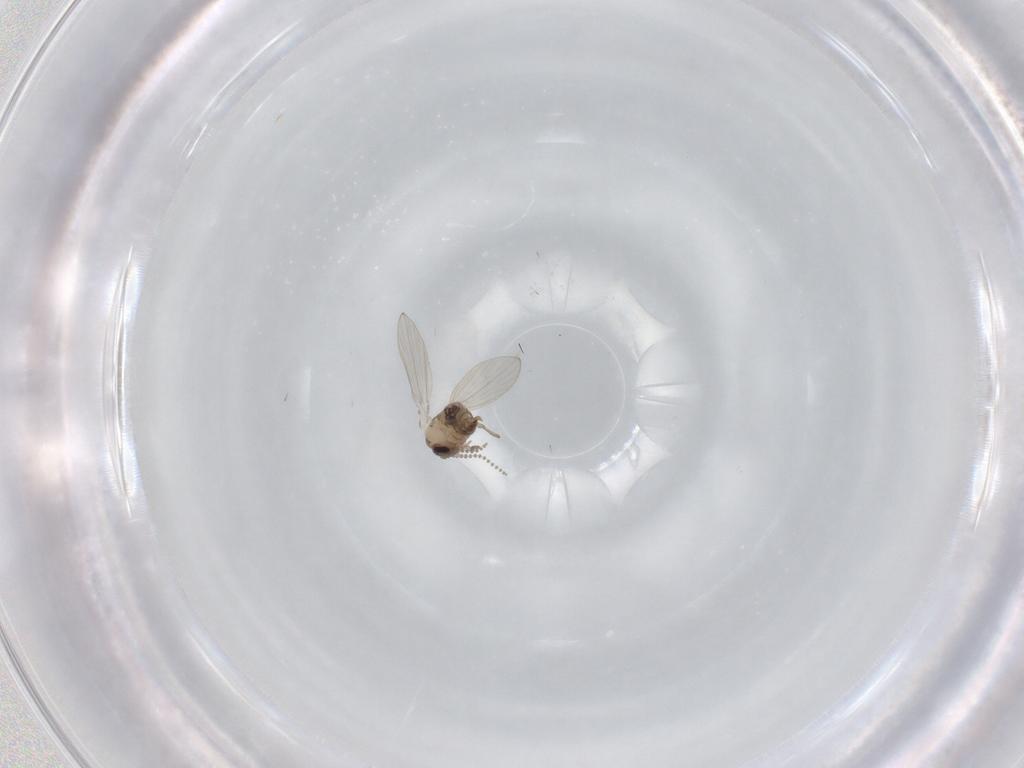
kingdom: Animalia
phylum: Arthropoda
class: Insecta
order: Diptera
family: Psychodidae
